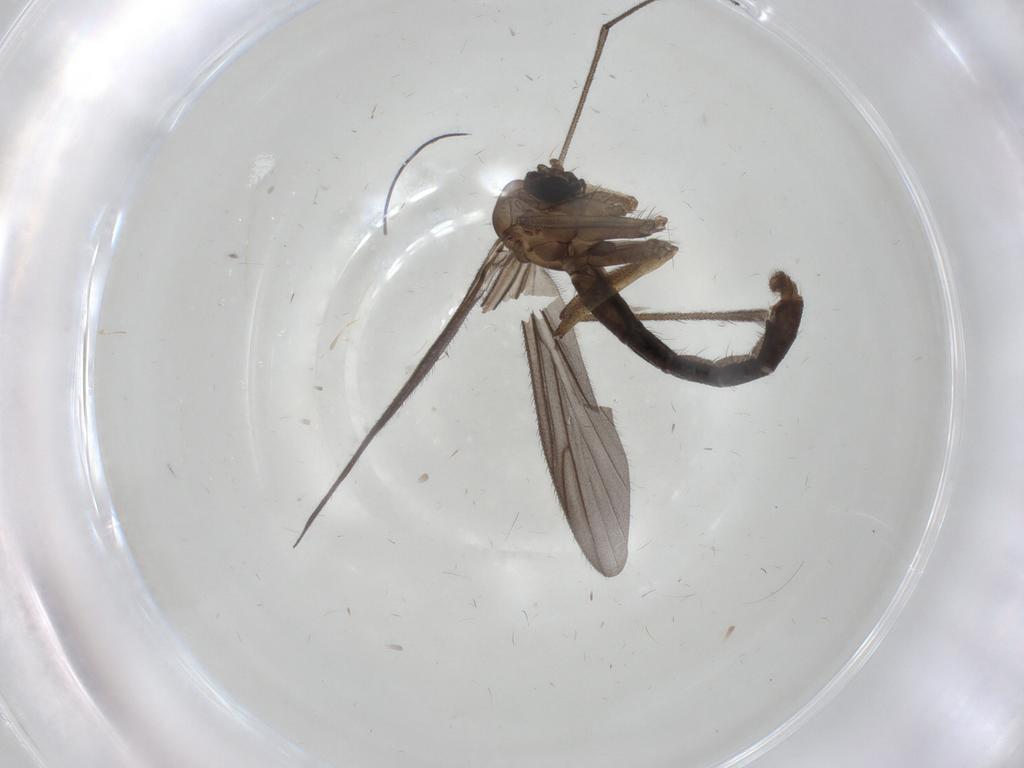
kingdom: Animalia
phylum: Arthropoda
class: Insecta
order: Diptera
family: Ditomyiidae
